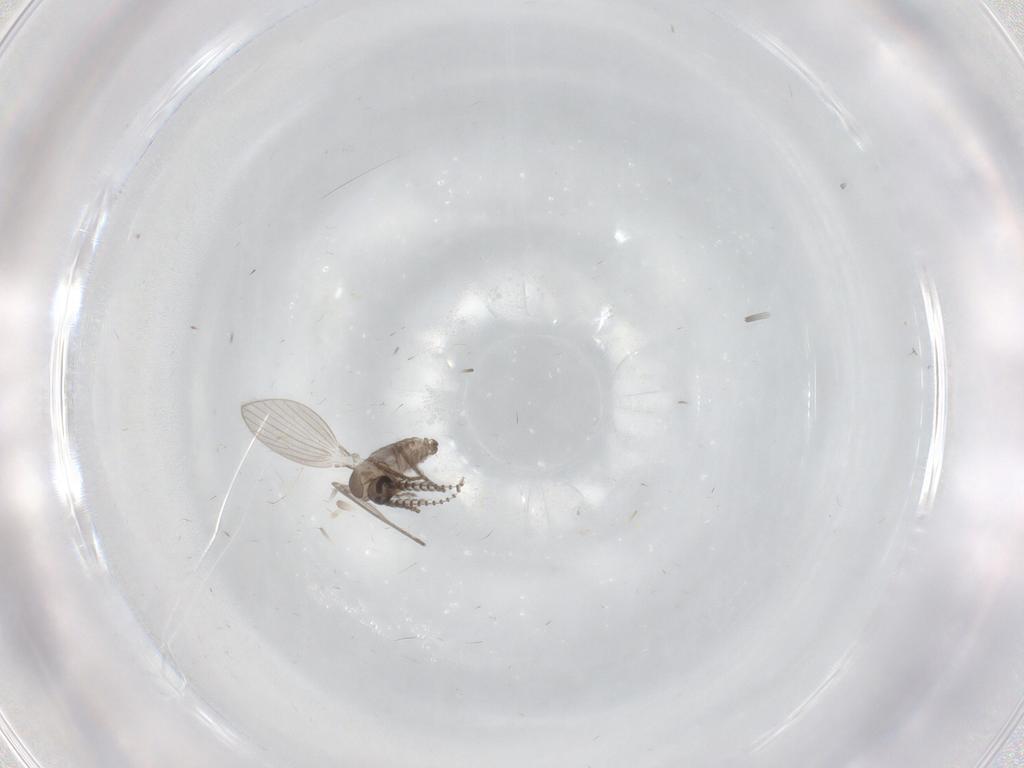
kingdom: Animalia
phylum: Arthropoda
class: Insecta
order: Diptera
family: Psychodidae
